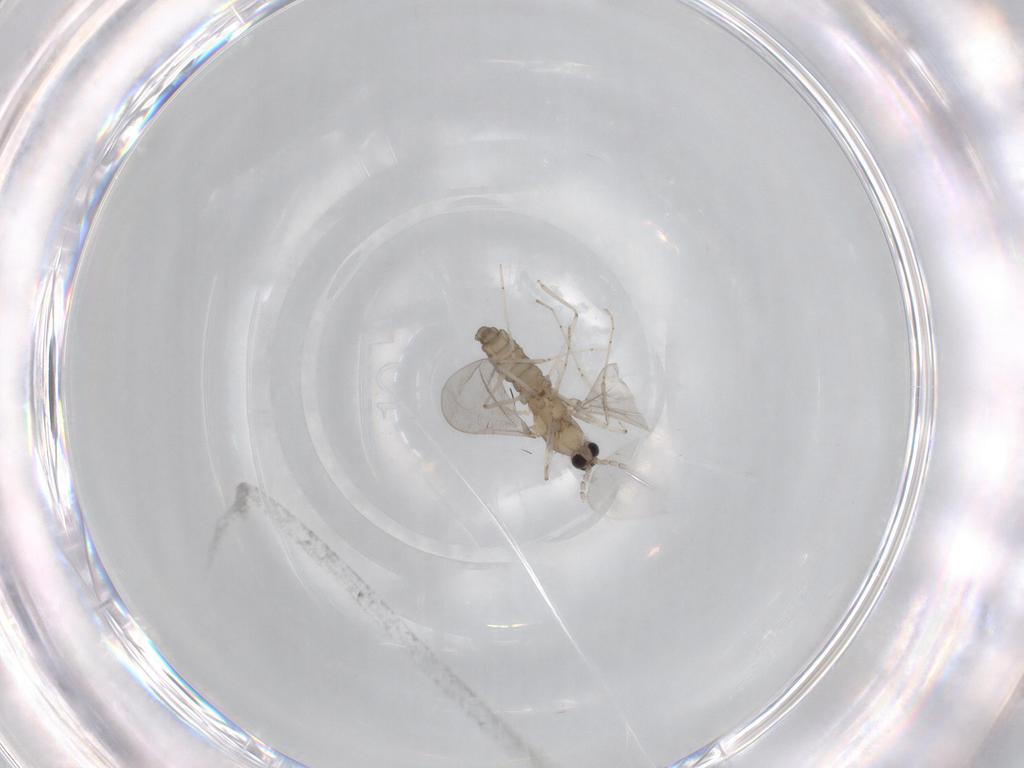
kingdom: Animalia
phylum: Arthropoda
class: Insecta
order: Diptera
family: Cecidomyiidae
